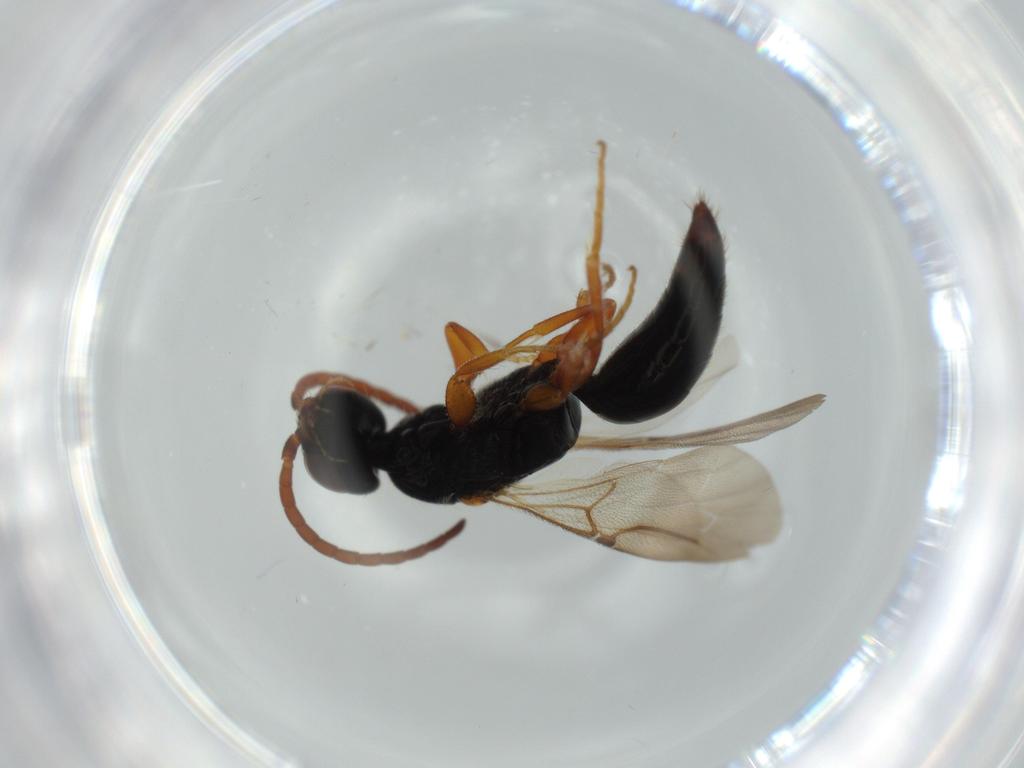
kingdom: Animalia
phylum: Arthropoda
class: Insecta
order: Hymenoptera
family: Bethylidae
